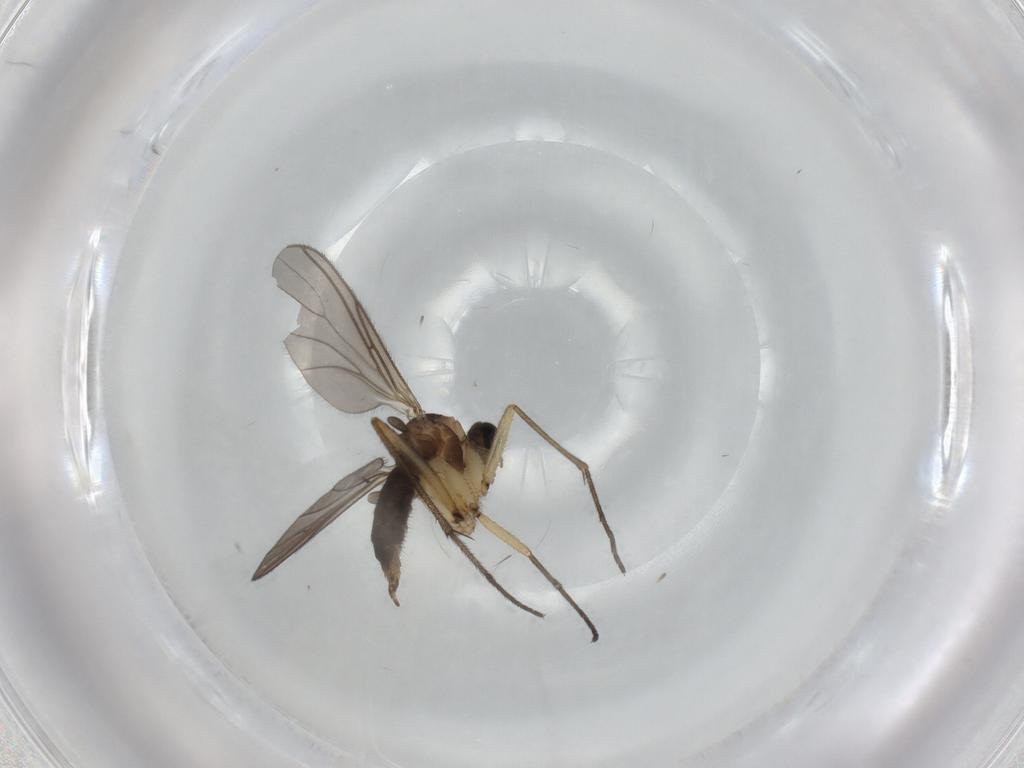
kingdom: Animalia
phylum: Arthropoda
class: Insecta
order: Diptera
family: Sciaridae
